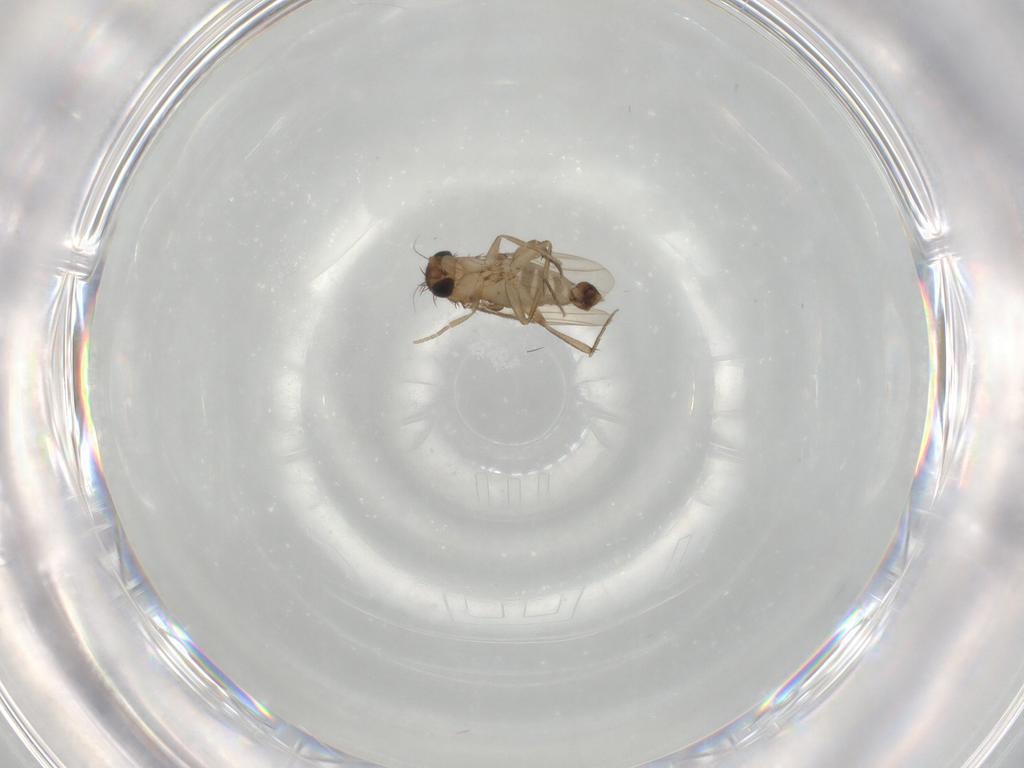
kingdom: Animalia
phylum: Arthropoda
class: Insecta
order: Diptera
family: Phoridae
